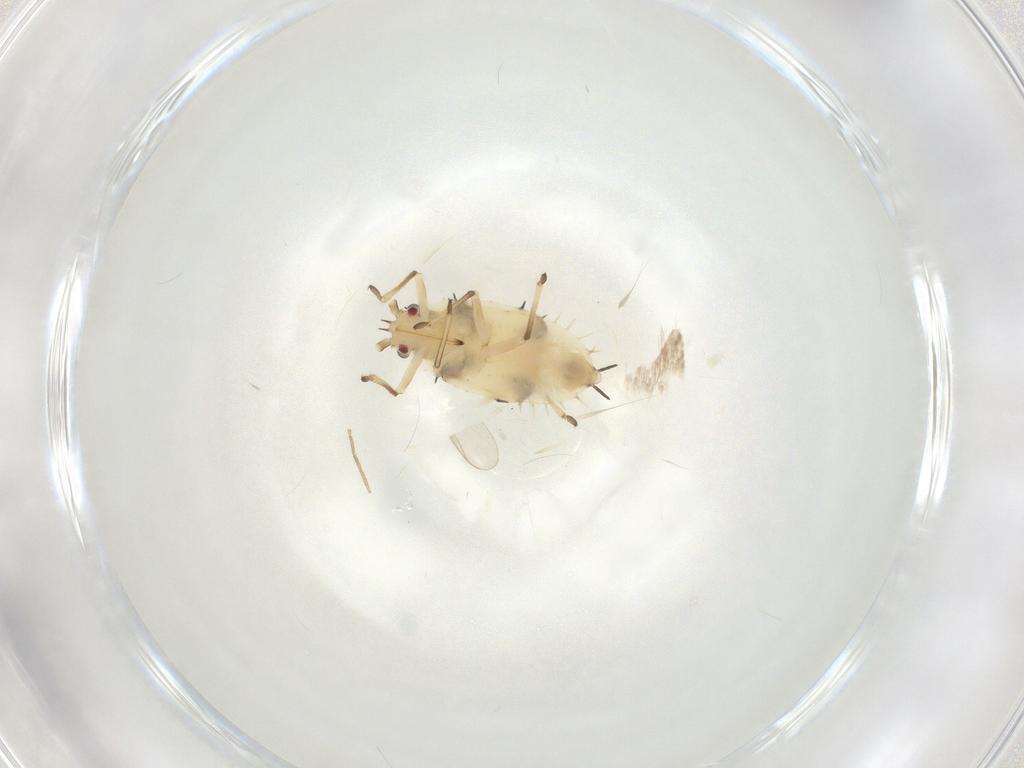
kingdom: Animalia
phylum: Arthropoda
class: Insecta
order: Hemiptera
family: Tingidae
